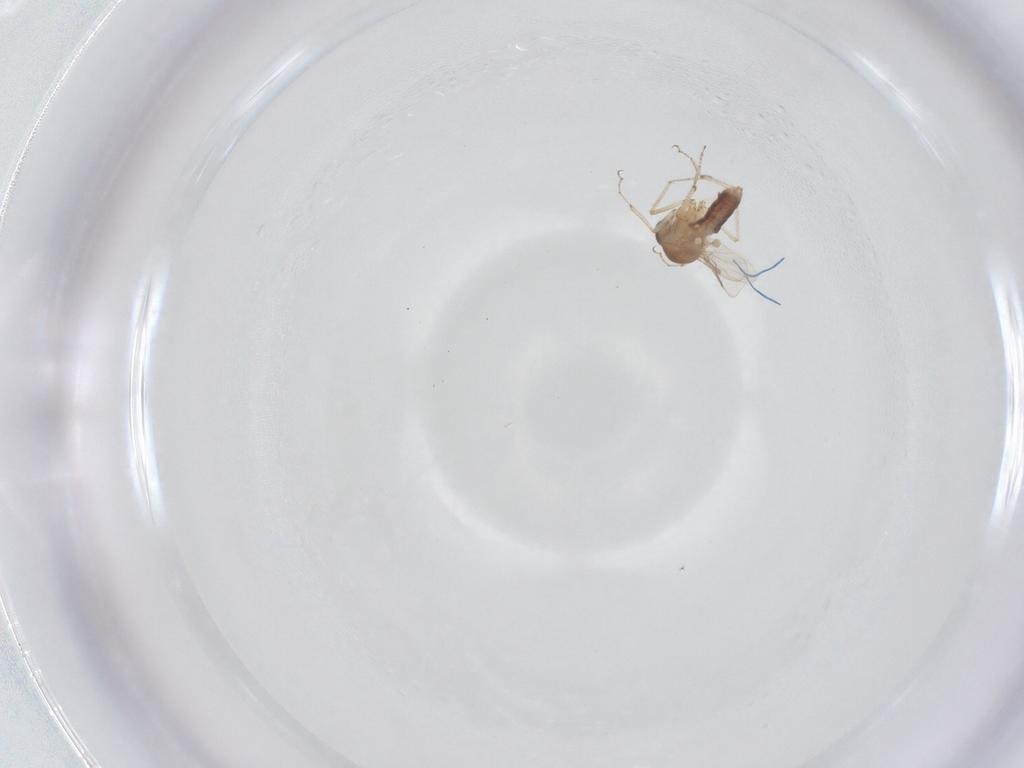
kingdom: Animalia
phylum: Arthropoda
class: Insecta
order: Diptera
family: Ceratopogonidae
